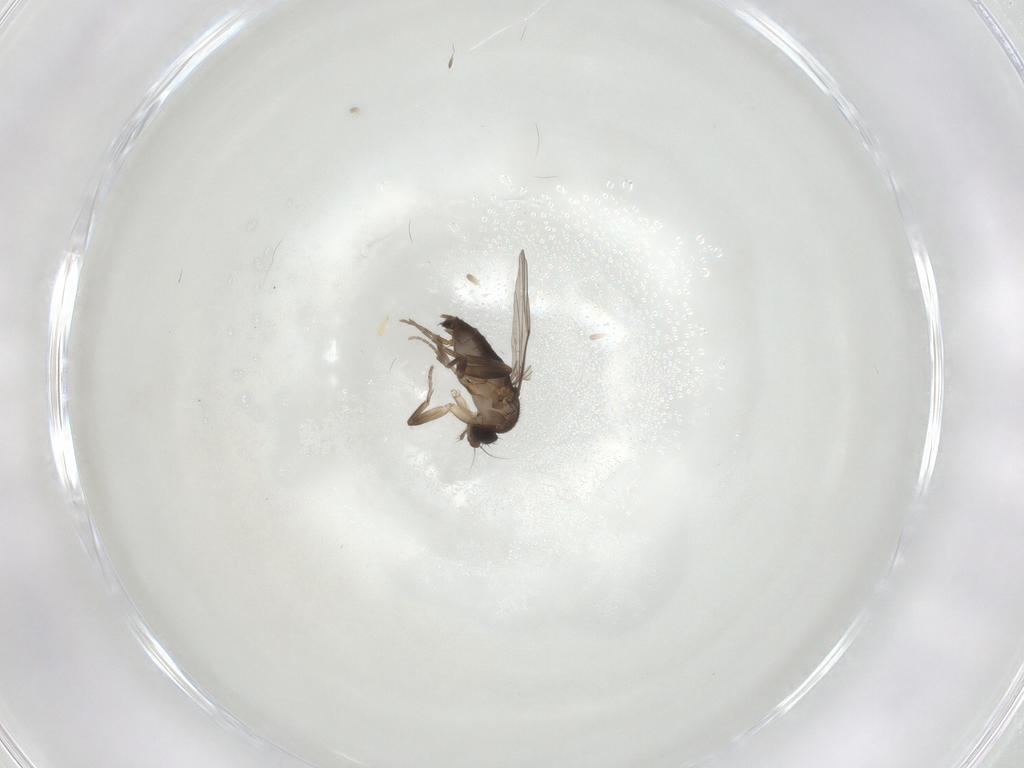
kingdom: Animalia
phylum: Arthropoda
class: Insecta
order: Diptera
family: Phoridae
